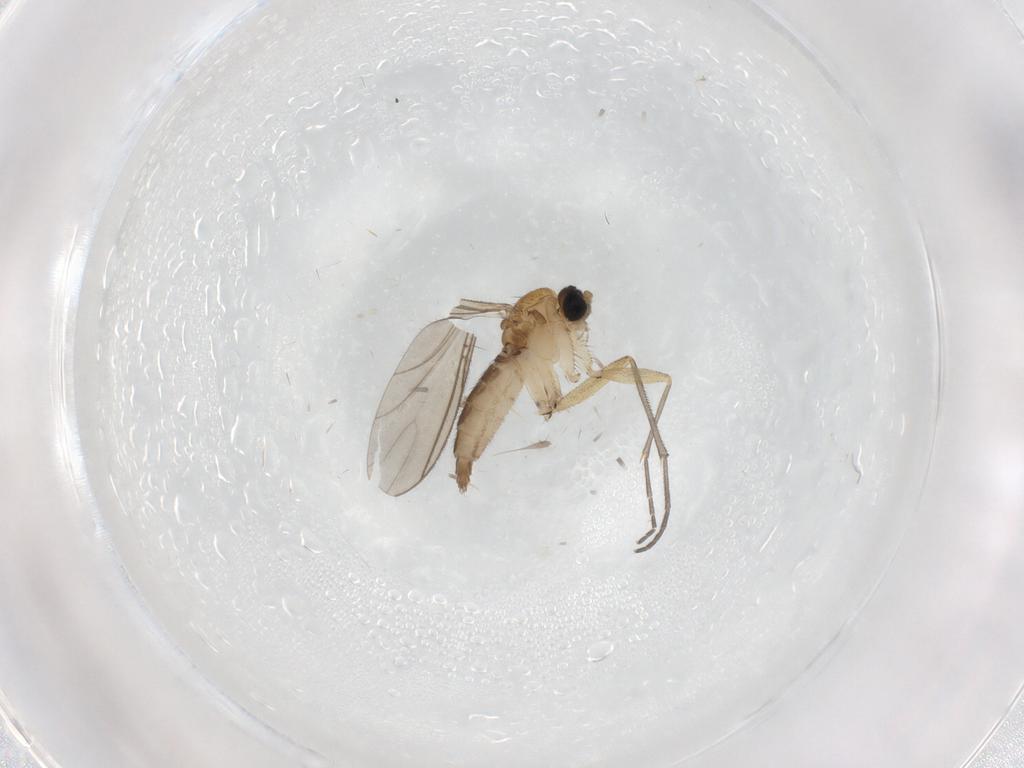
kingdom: Animalia
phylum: Arthropoda
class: Insecta
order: Diptera
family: Sciaridae
